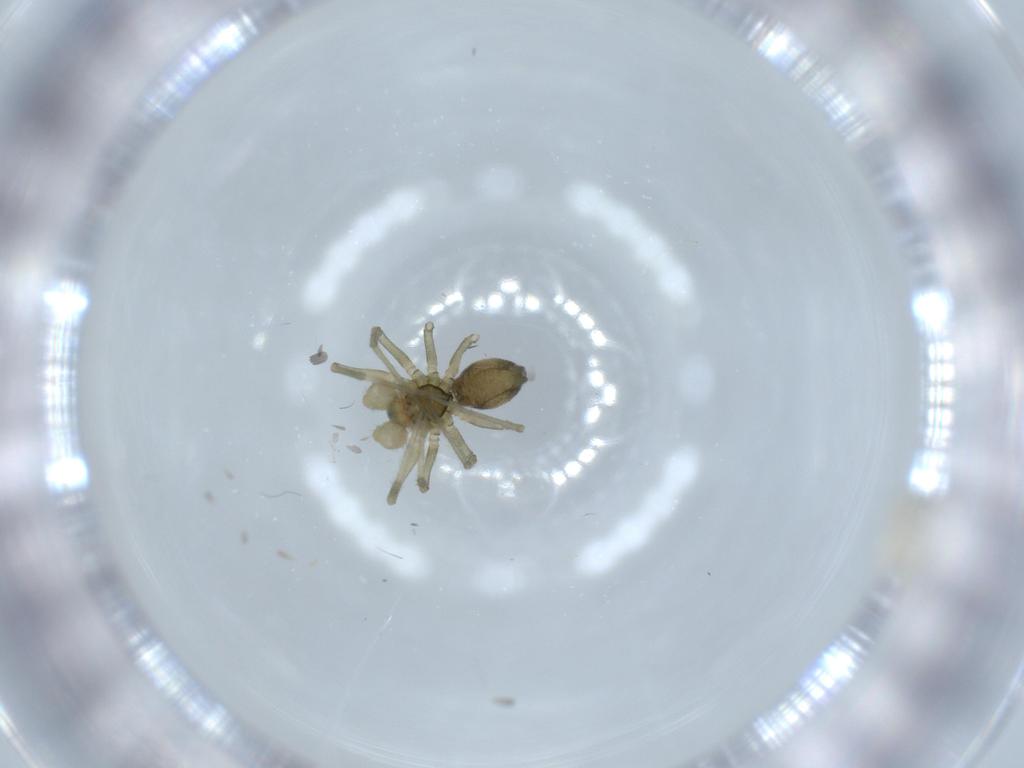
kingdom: Animalia
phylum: Arthropoda
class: Arachnida
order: Araneae
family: Linyphiidae
